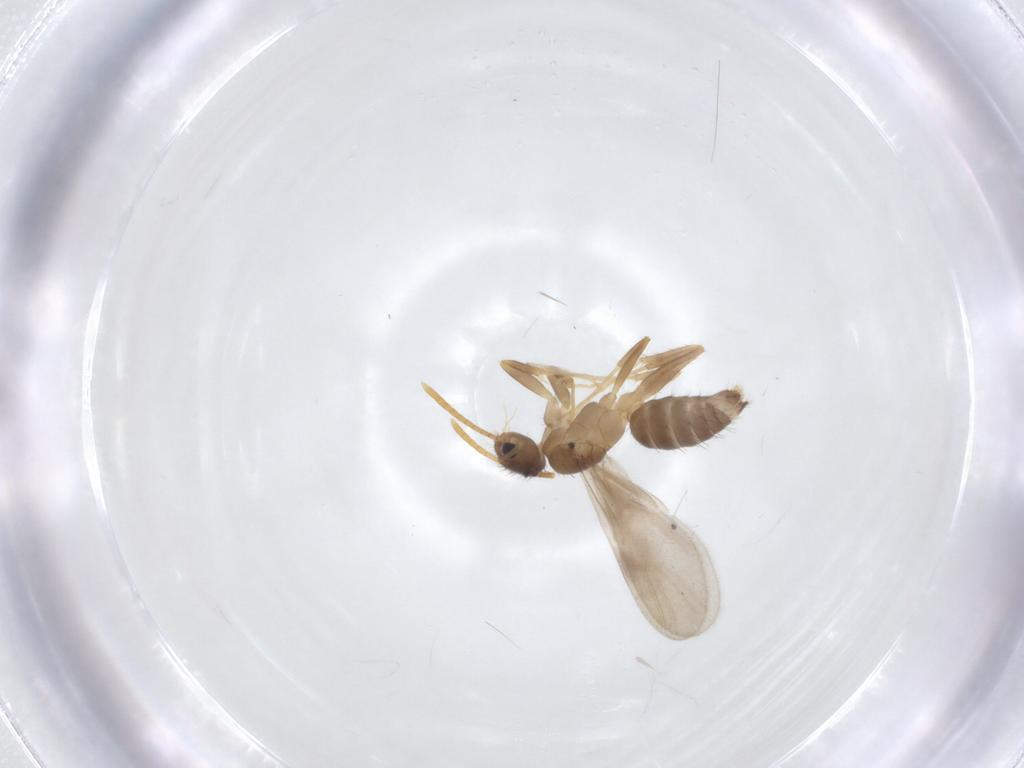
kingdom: Animalia
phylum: Arthropoda
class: Insecta
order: Hymenoptera
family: Formicidae
